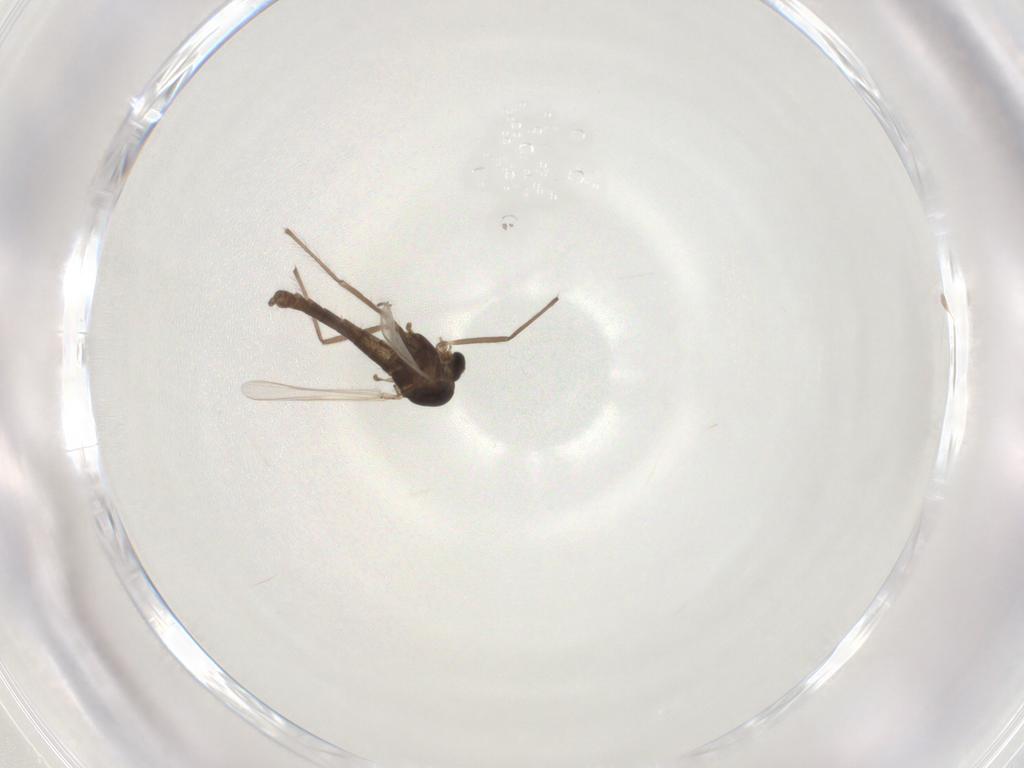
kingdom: Animalia
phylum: Arthropoda
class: Insecta
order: Diptera
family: Chironomidae
